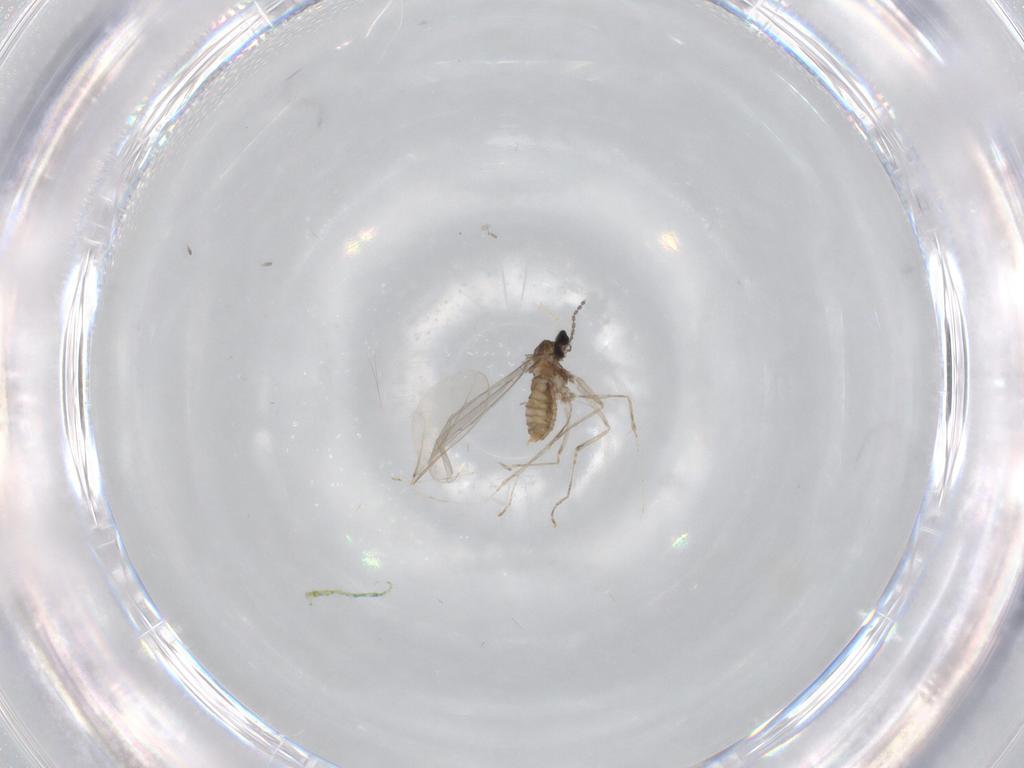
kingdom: Animalia
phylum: Arthropoda
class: Insecta
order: Diptera
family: Cecidomyiidae
